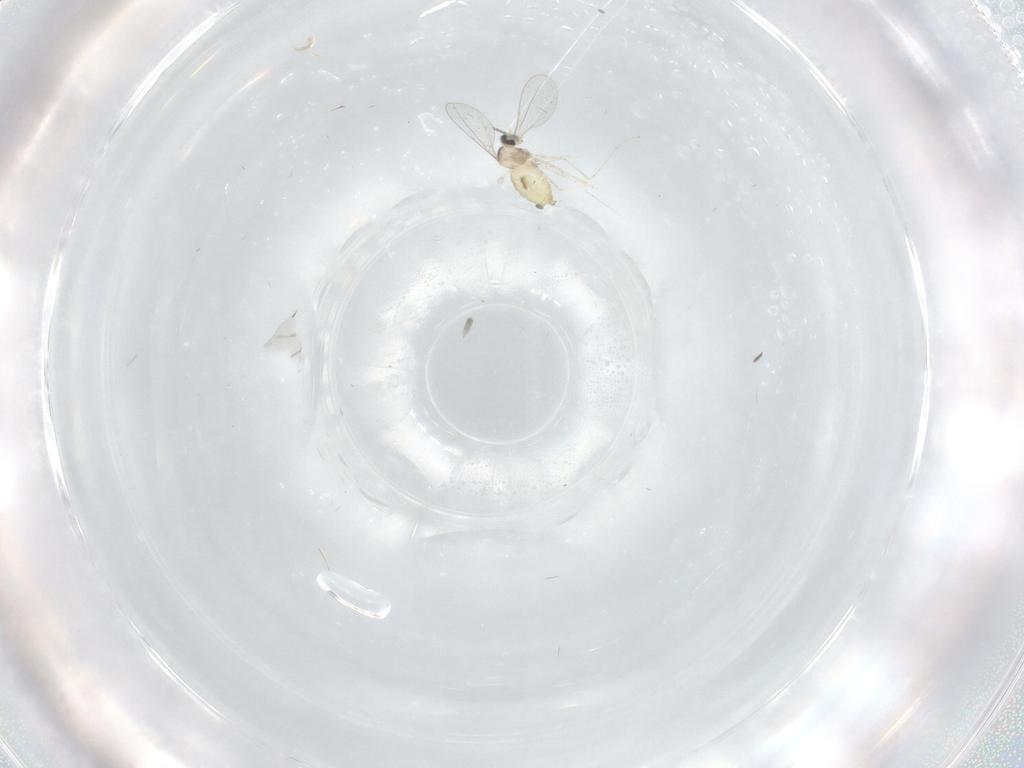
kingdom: Animalia
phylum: Arthropoda
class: Insecta
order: Diptera
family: Cecidomyiidae
